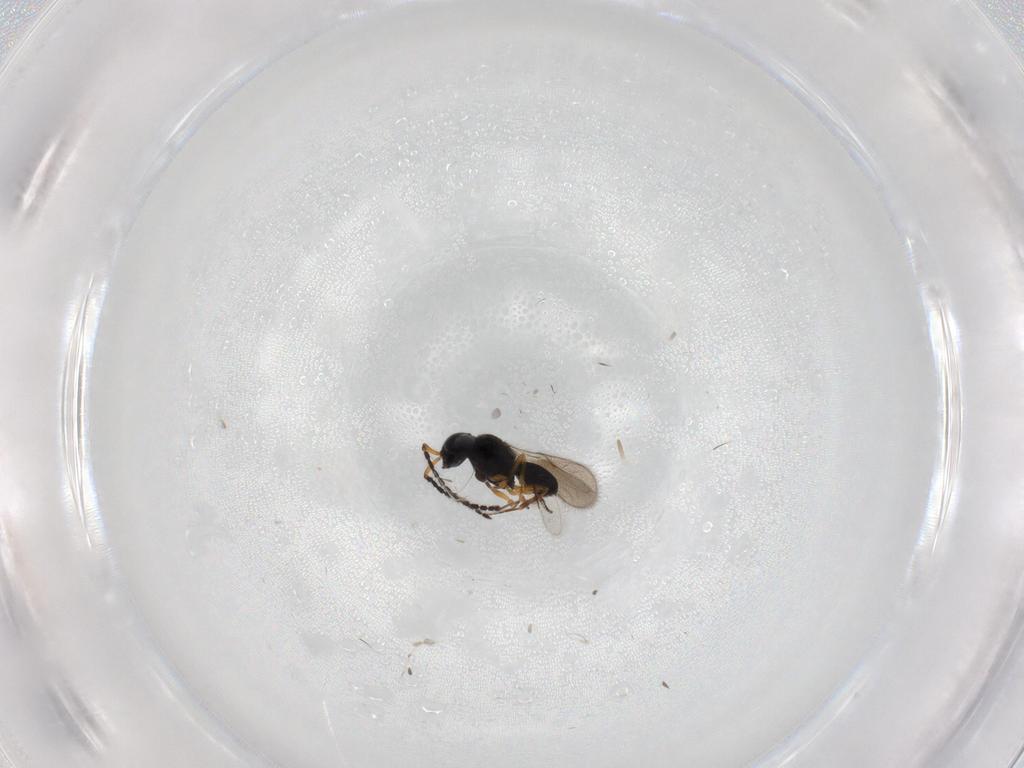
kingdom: Animalia
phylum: Arthropoda
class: Insecta
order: Hymenoptera
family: Scelionidae
